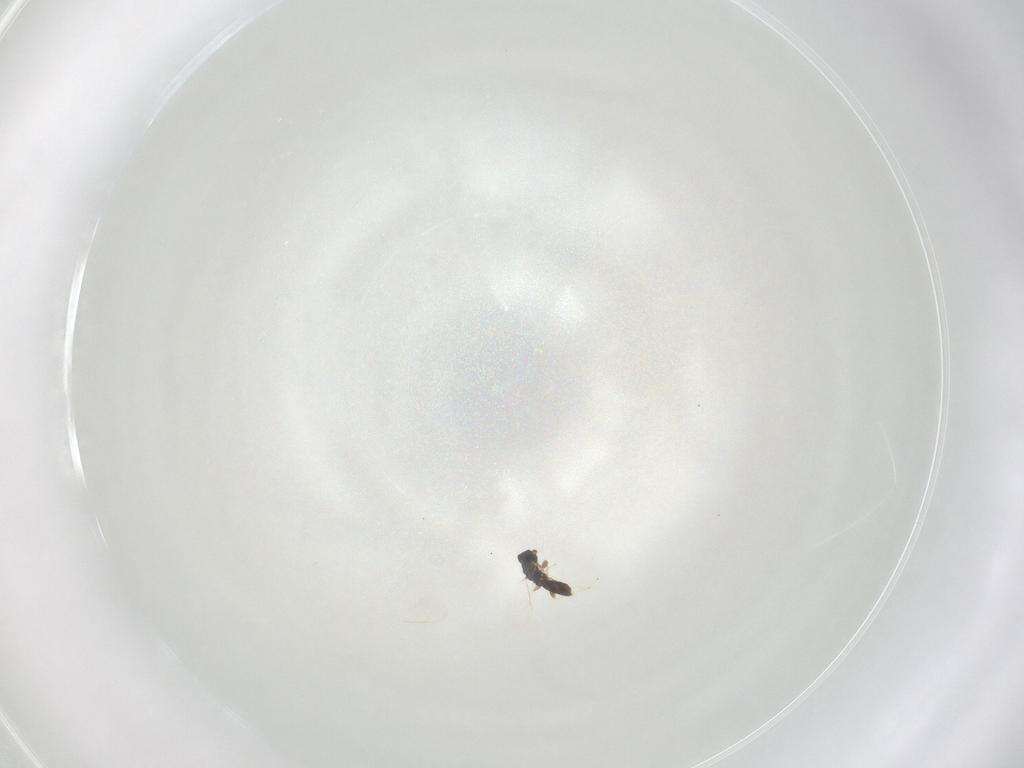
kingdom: Animalia
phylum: Arthropoda
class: Insecta
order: Hymenoptera
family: Eulophidae
